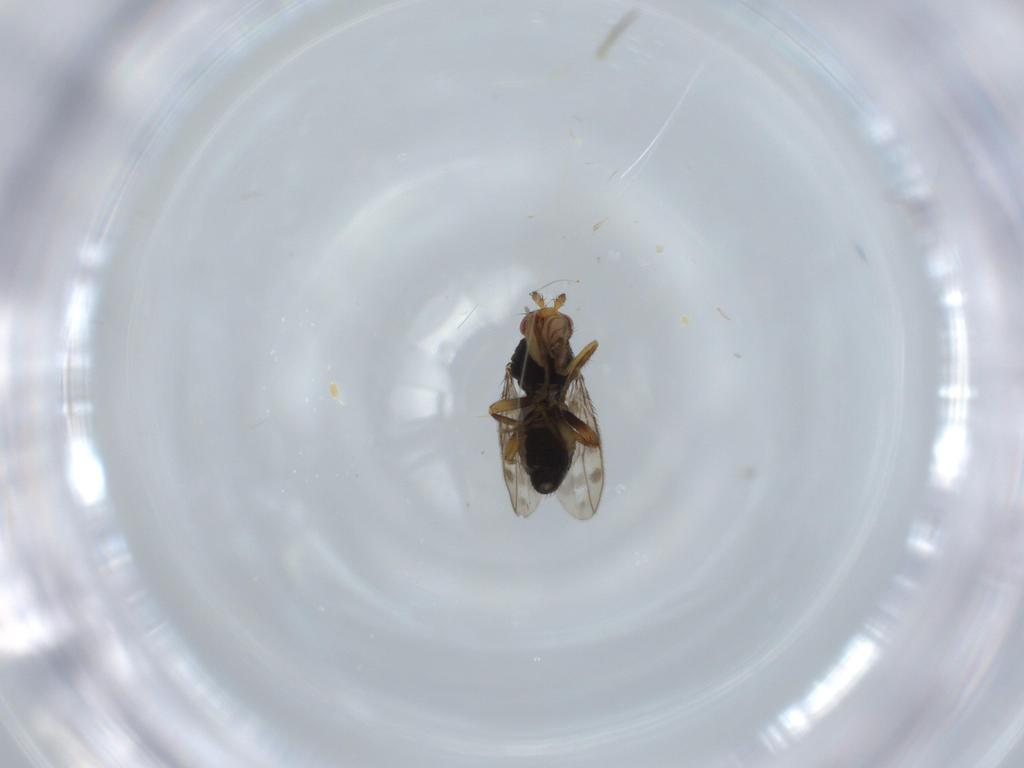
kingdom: Animalia
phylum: Arthropoda
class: Insecta
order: Diptera
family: Sphaeroceridae
